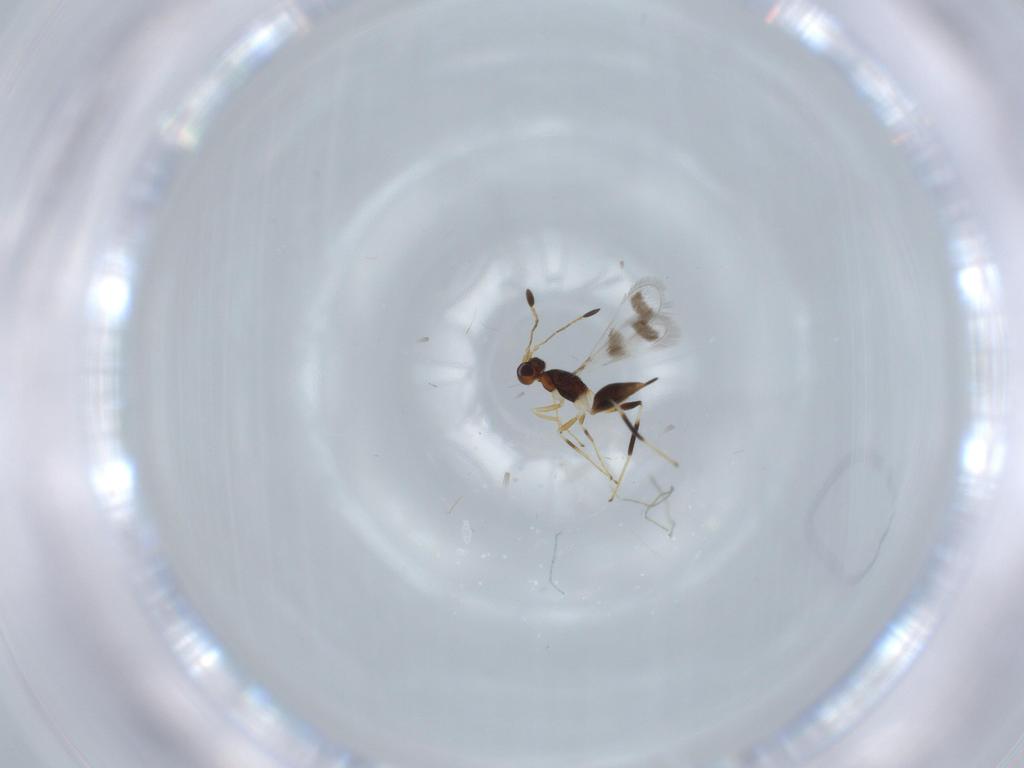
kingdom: Animalia
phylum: Arthropoda
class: Insecta
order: Hymenoptera
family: Mymaridae
